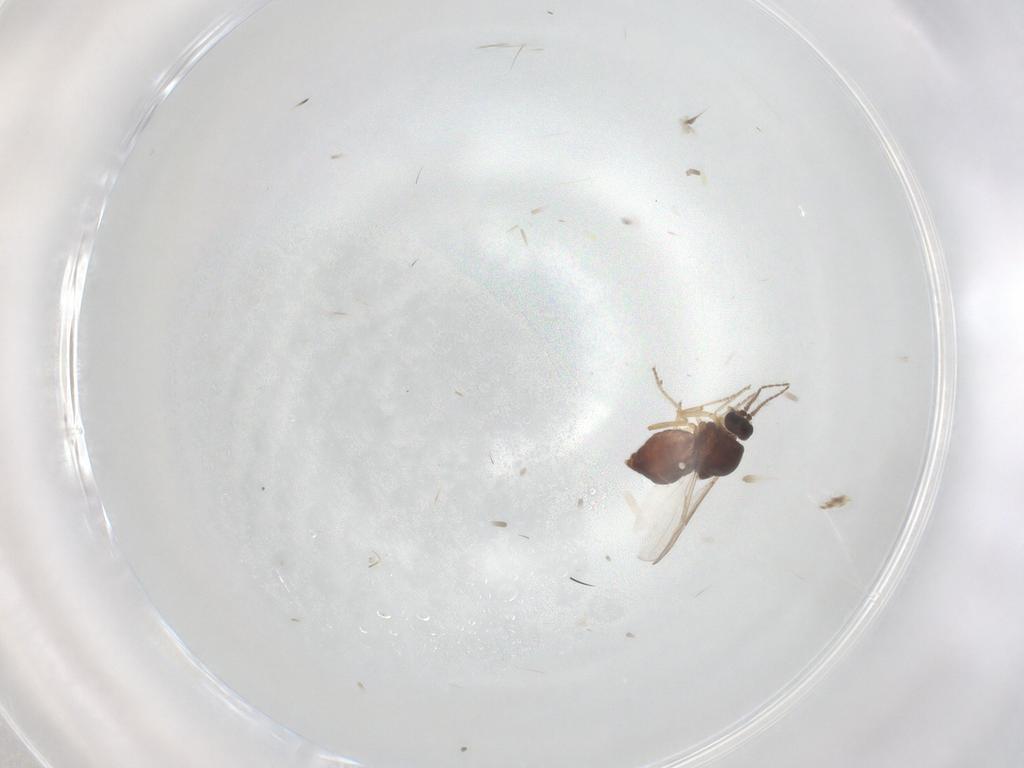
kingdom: Animalia
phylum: Arthropoda
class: Insecta
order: Diptera
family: Ceratopogonidae
